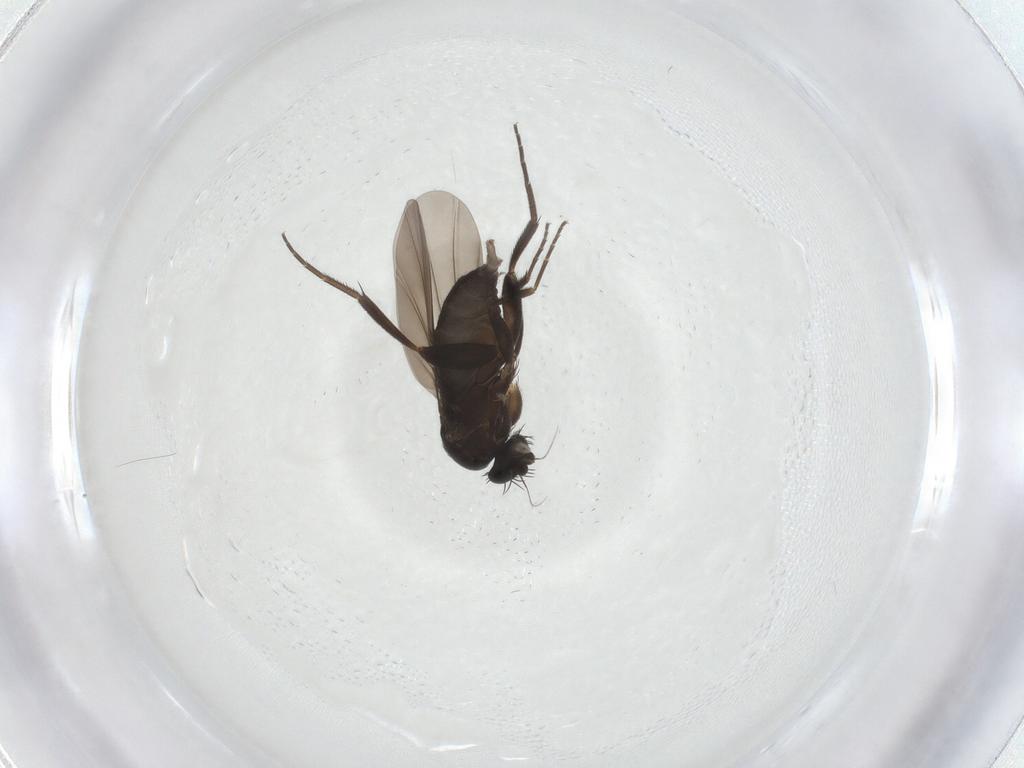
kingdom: Animalia
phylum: Arthropoda
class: Insecta
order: Diptera
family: Phoridae
